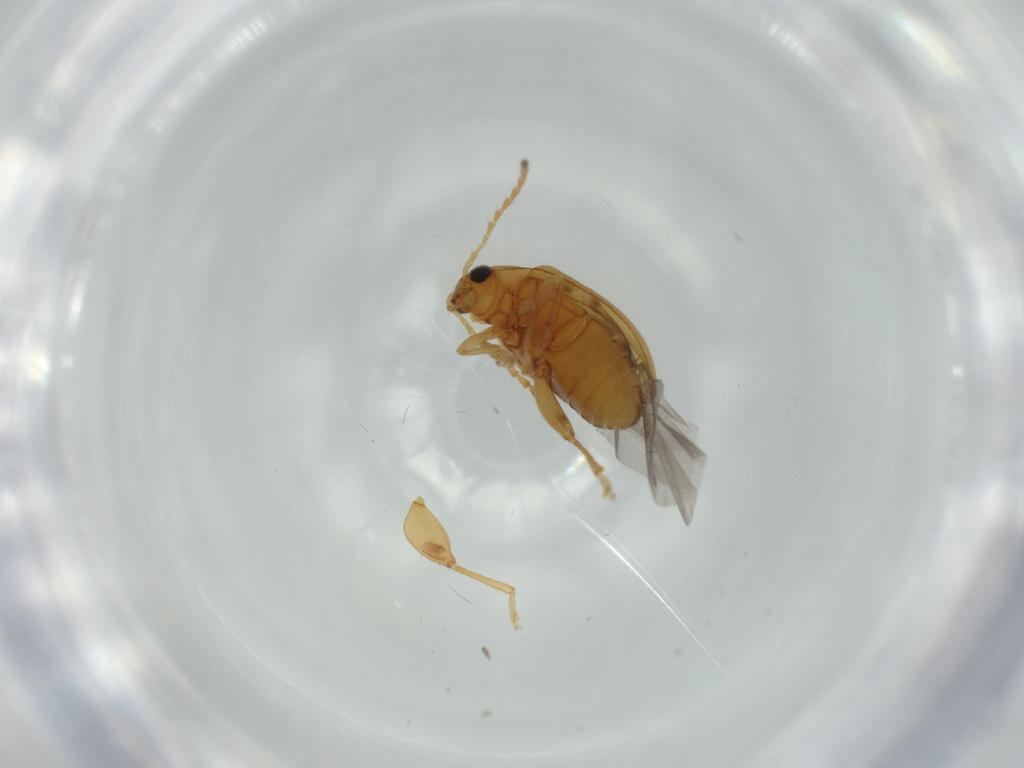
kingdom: Animalia
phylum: Arthropoda
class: Insecta
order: Coleoptera
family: Chrysomelidae
